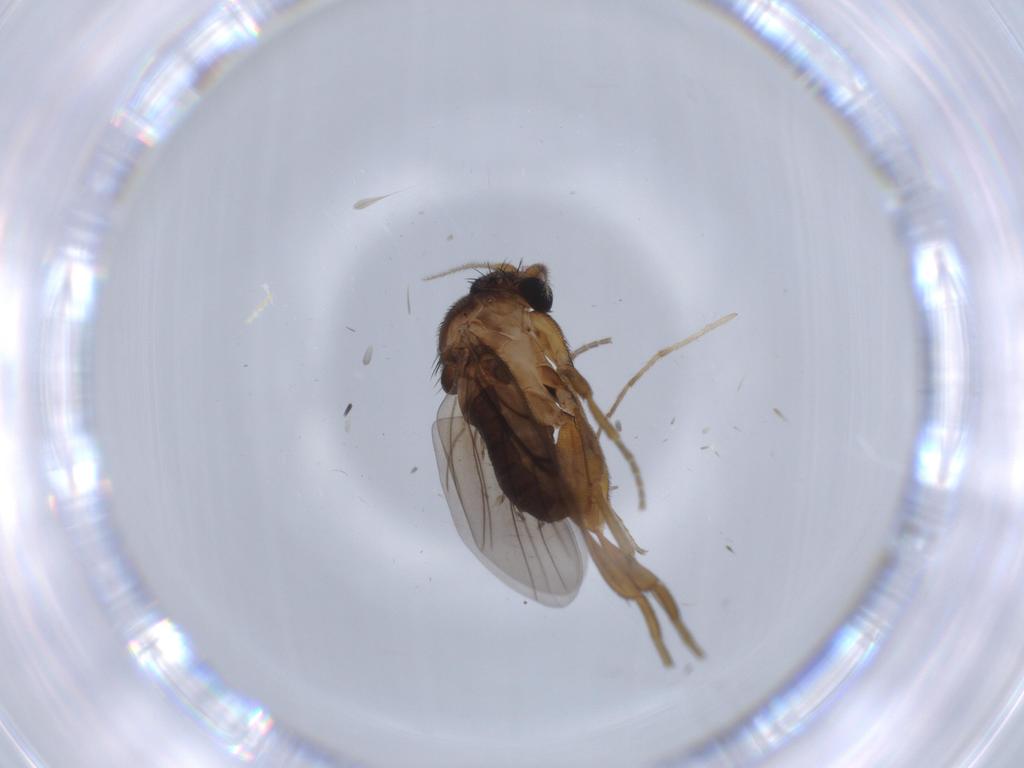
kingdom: Animalia
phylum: Arthropoda
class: Insecta
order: Diptera
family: Chironomidae
